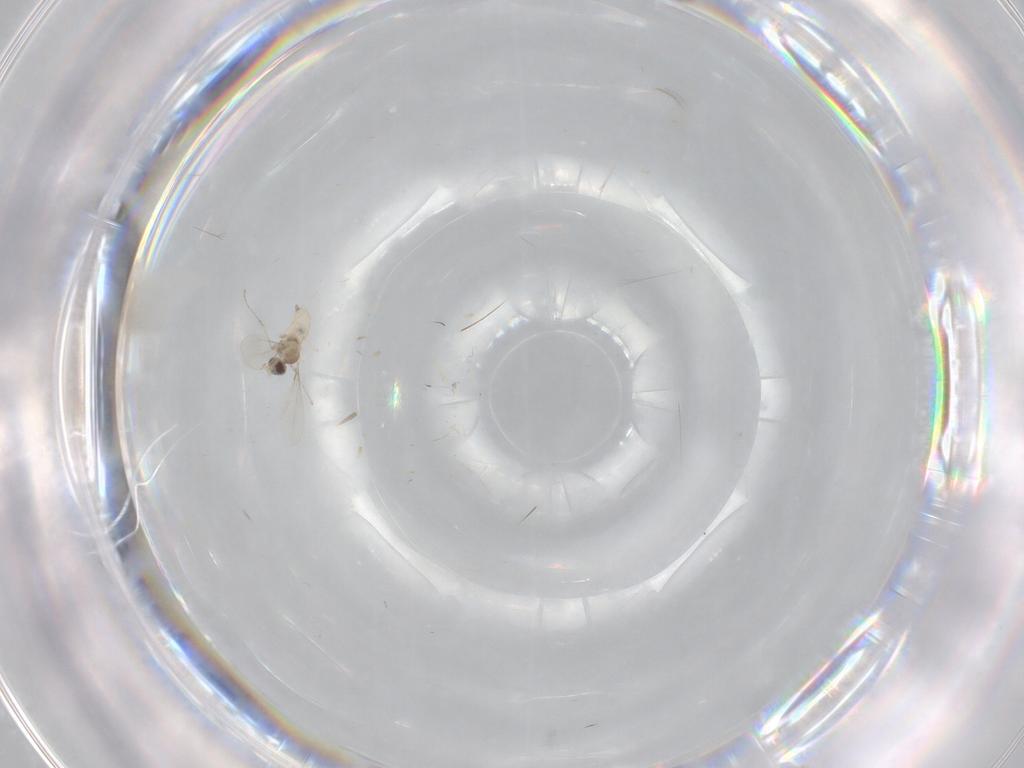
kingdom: Animalia
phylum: Arthropoda
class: Insecta
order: Diptera
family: Cecidomyiidae
